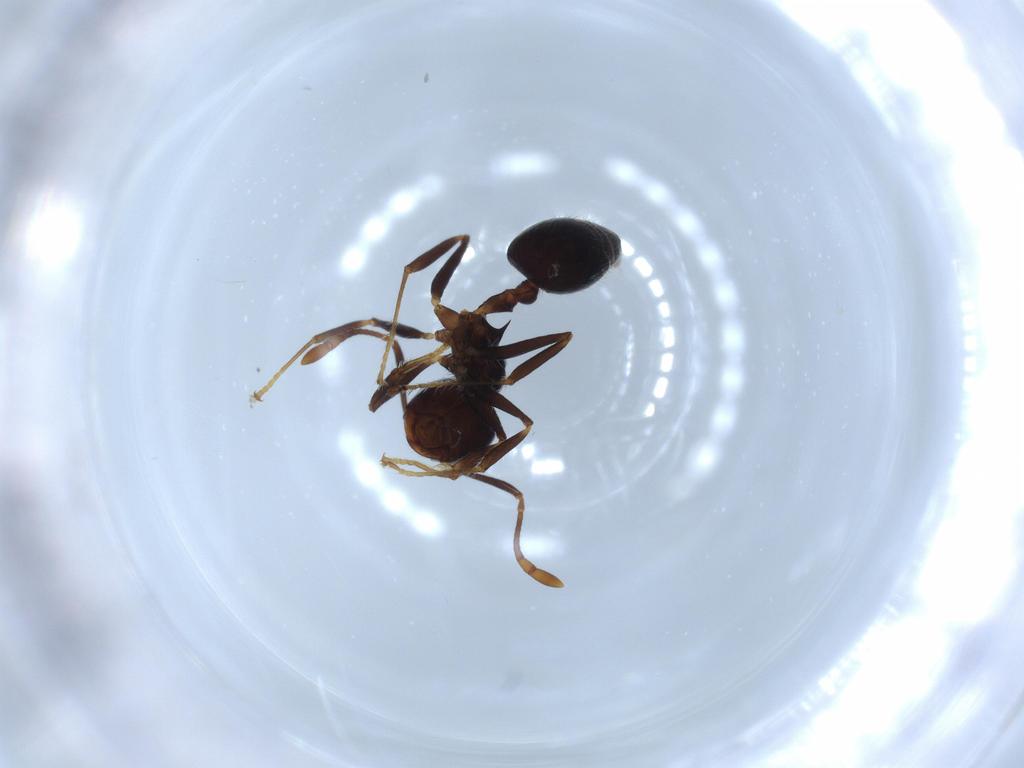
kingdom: Animalia
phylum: Arthropoda
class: Insecta
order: Hymenoptera
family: Formicidae
